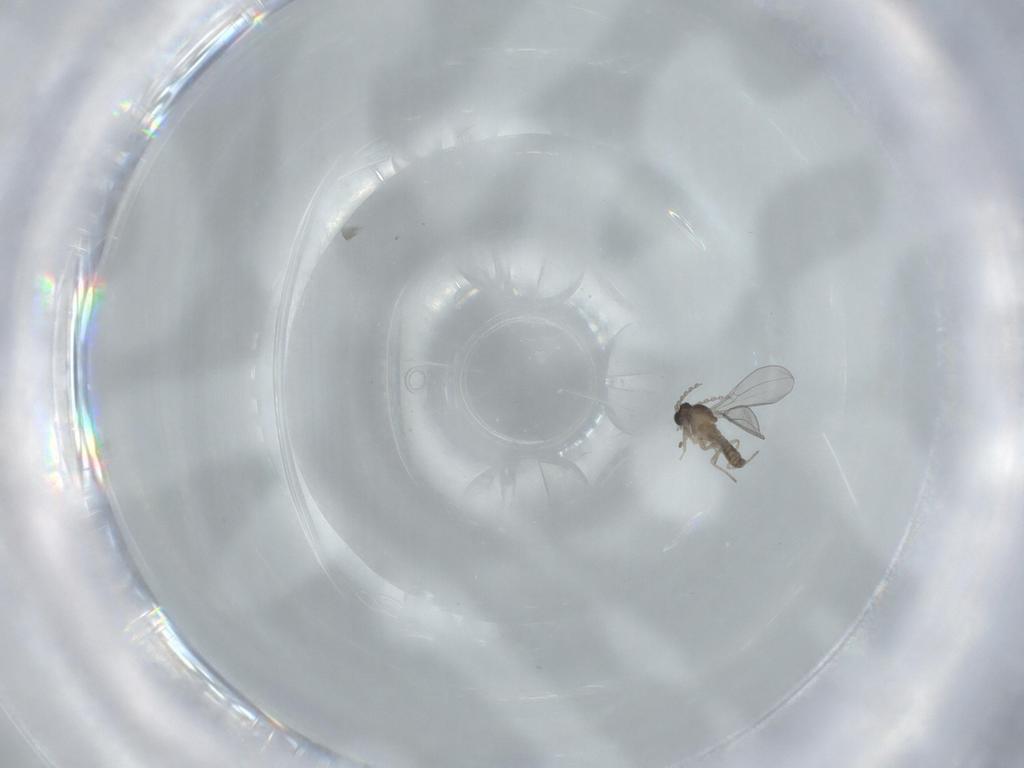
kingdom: Animalia
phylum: Arthropoda
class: Insecta
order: Diptera
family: Cecidomyiidae
